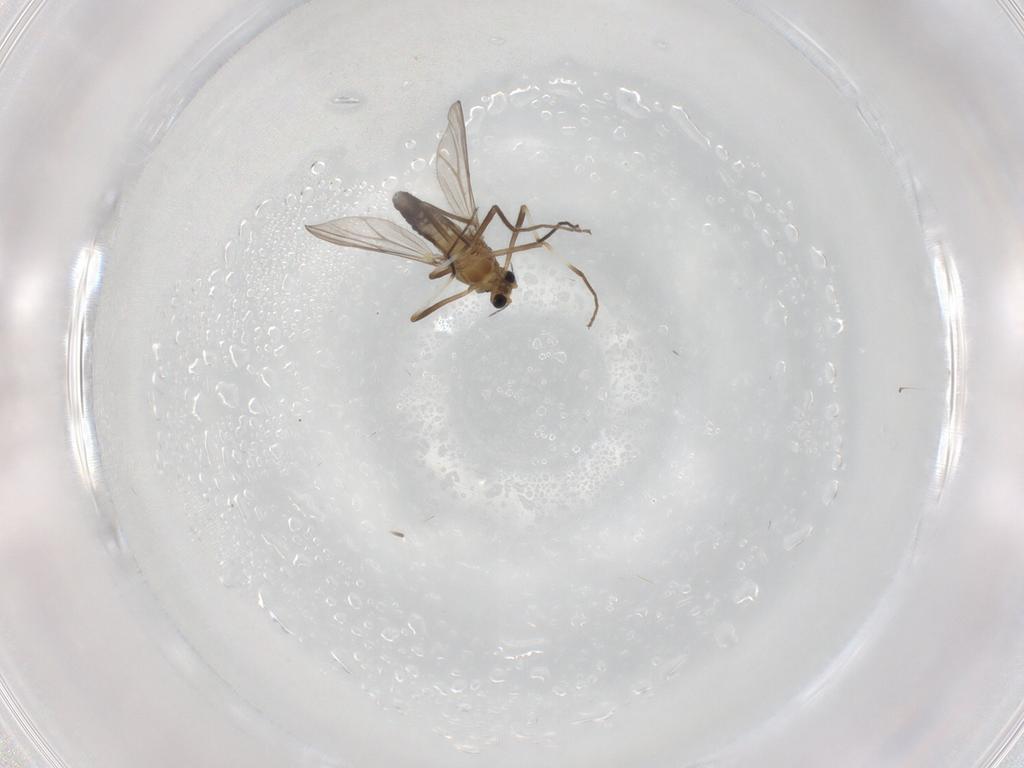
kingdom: Animalia
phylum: Arthropoda
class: Insecta
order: Diptera
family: Chironomidae
